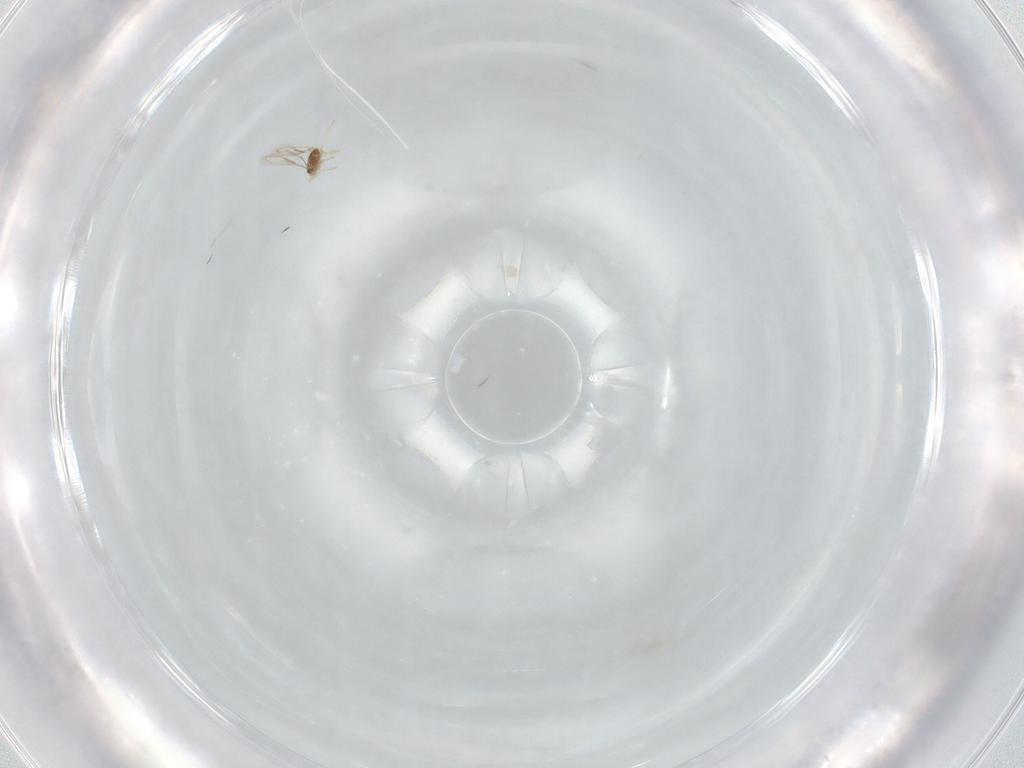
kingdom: Animalia
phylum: Arthropoda
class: Insecta
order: Hymenoptera
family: Aphelinidae
